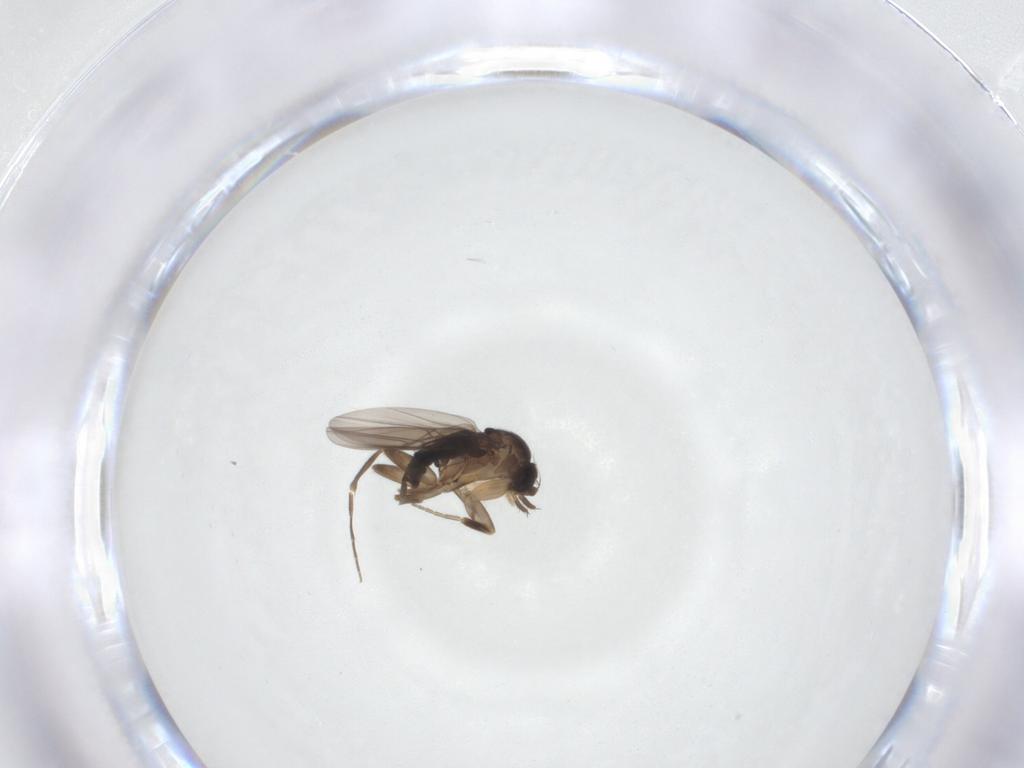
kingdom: Animalia
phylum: Arthropoda
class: Insecta
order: Diptera
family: Phoridae
